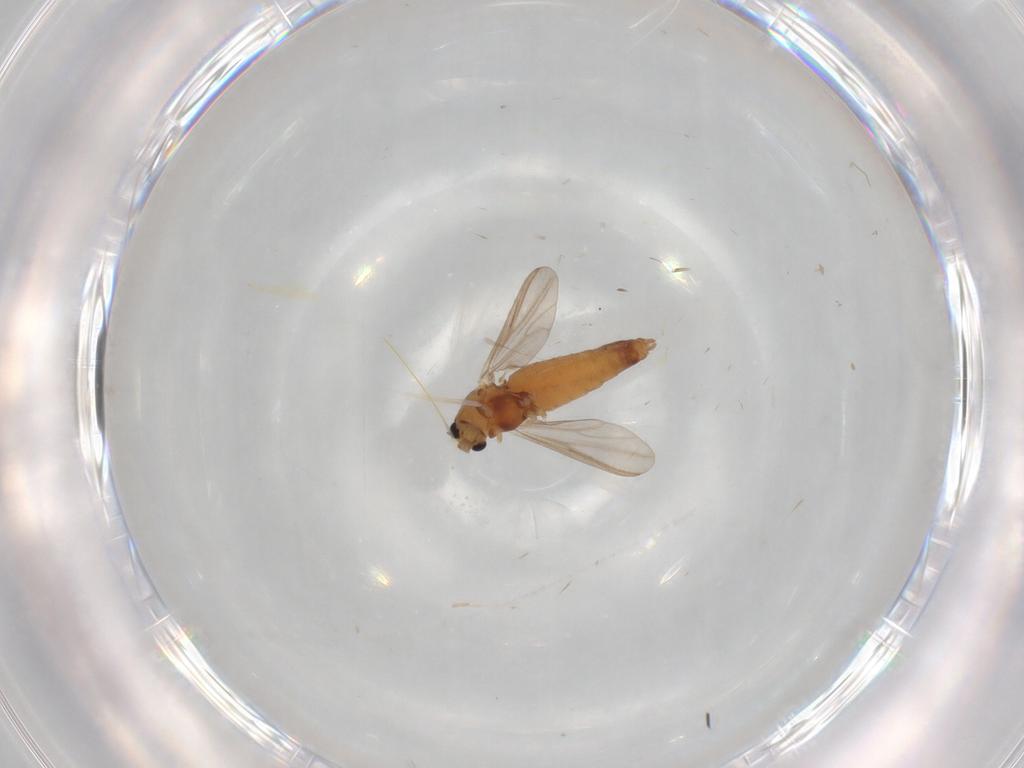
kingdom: Animalia
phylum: Arthropoda
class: Insecta
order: Diptera
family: Chironomidae
